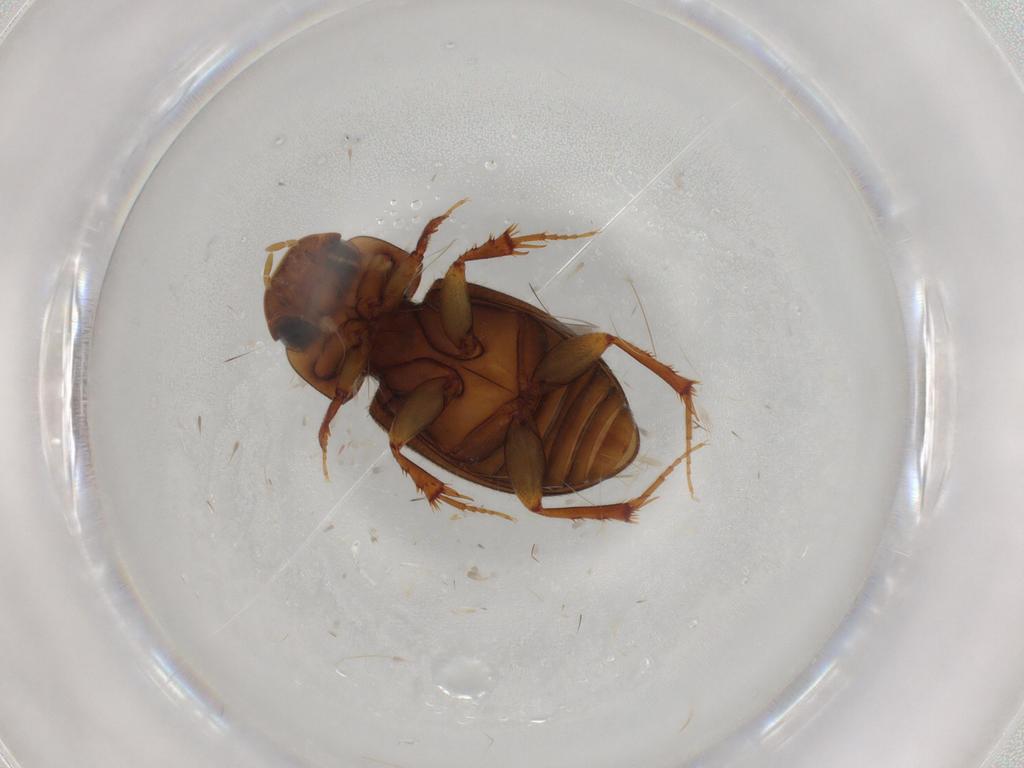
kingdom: Animalia
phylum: Arthropoda
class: Insecta
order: Coleoptera
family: Scarabaeidae
